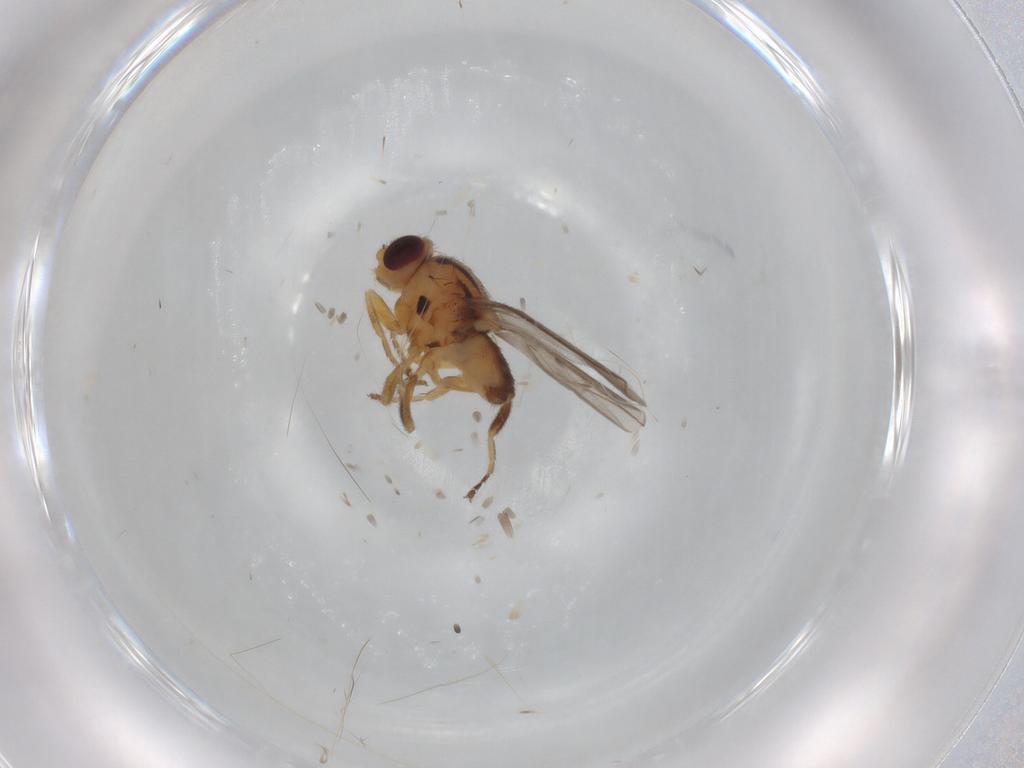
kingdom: Animalia
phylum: Arthropoda
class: Insecta
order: Diptera
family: Chloropidae
